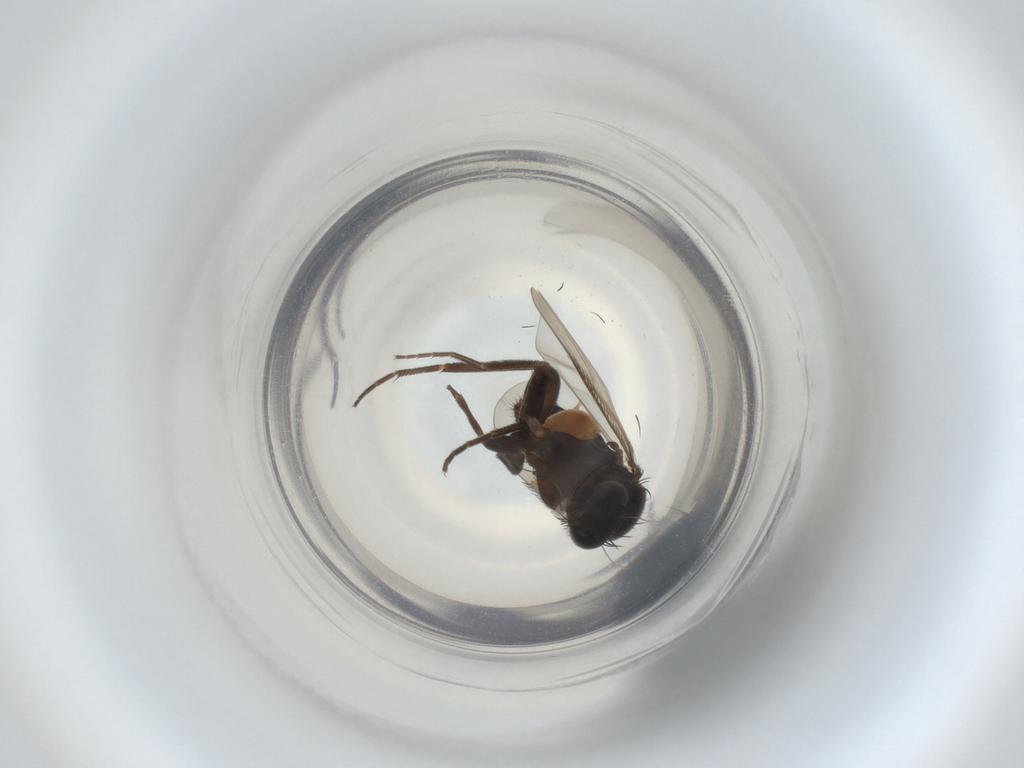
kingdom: Animalia
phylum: Arthropoda
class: Insecta
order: Diptera
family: Phoridae
